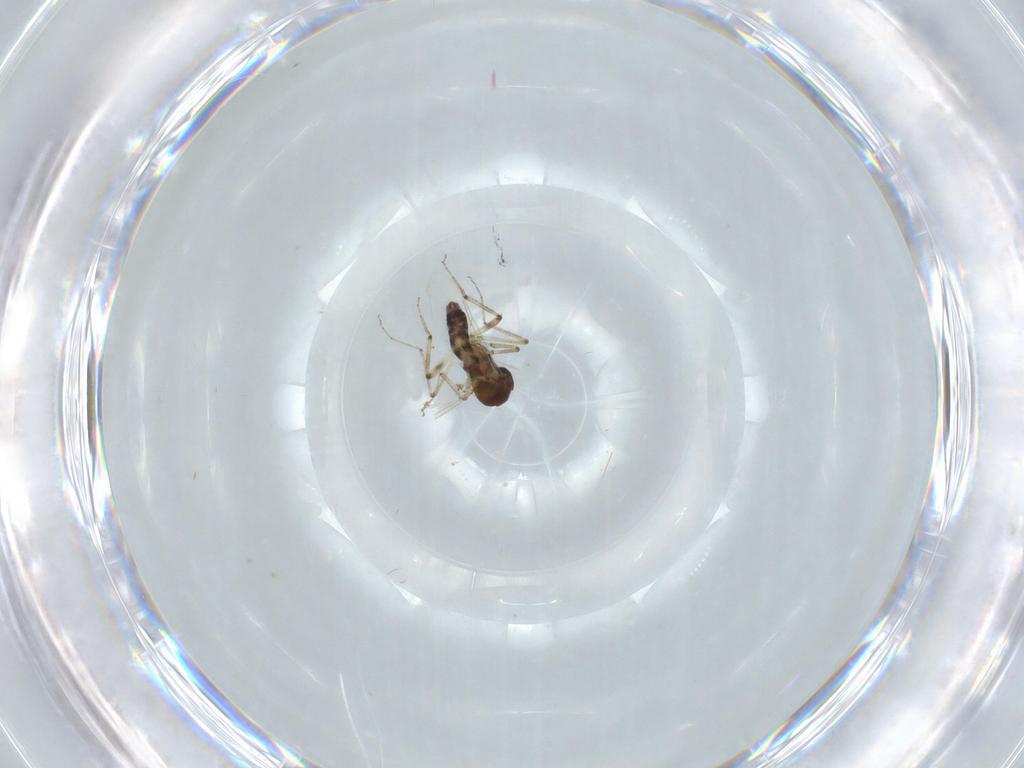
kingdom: Animalia
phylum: Arthropoda
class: Insecta
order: Diptera
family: Ceratopogonidae
